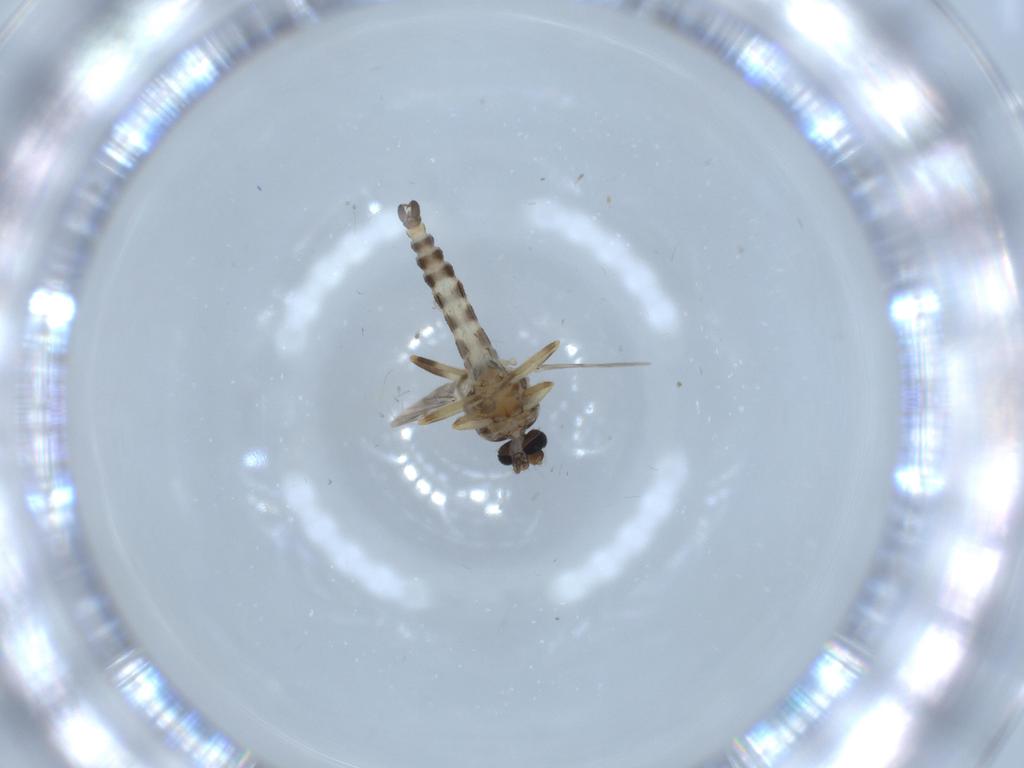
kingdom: Animalia
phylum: Arthropoda
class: Insecta
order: Diptera
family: Ceratopogonidae
